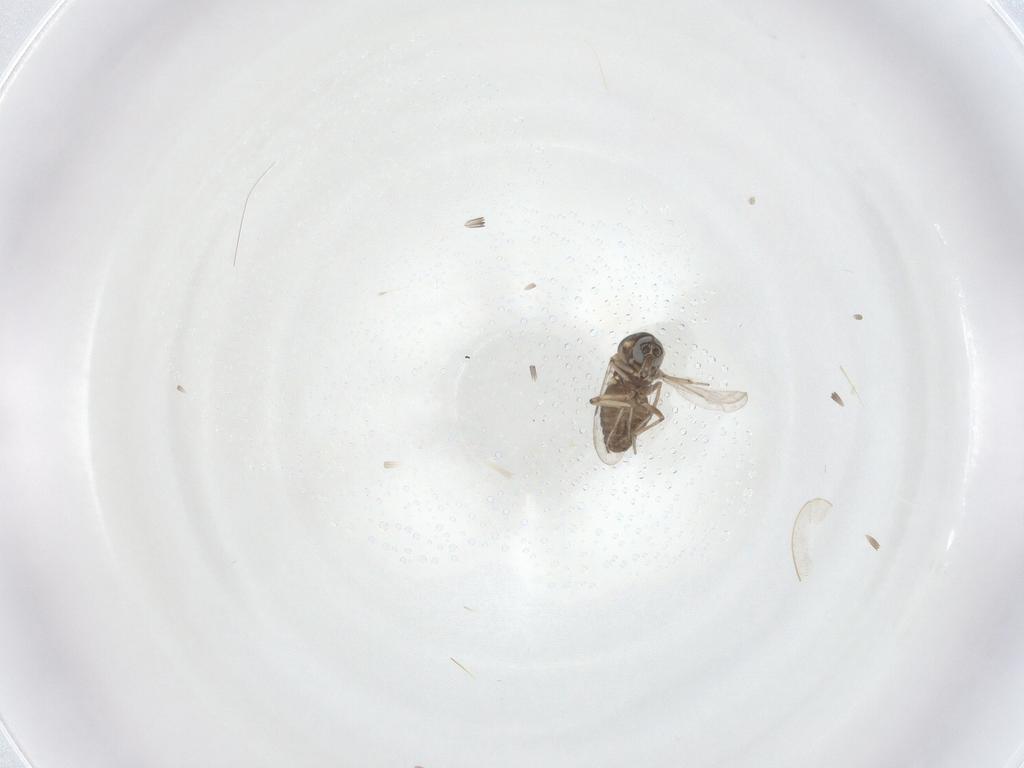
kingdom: Animalia
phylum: Arthropoda
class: Insecta
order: Diptera
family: Ceratopogonidae
